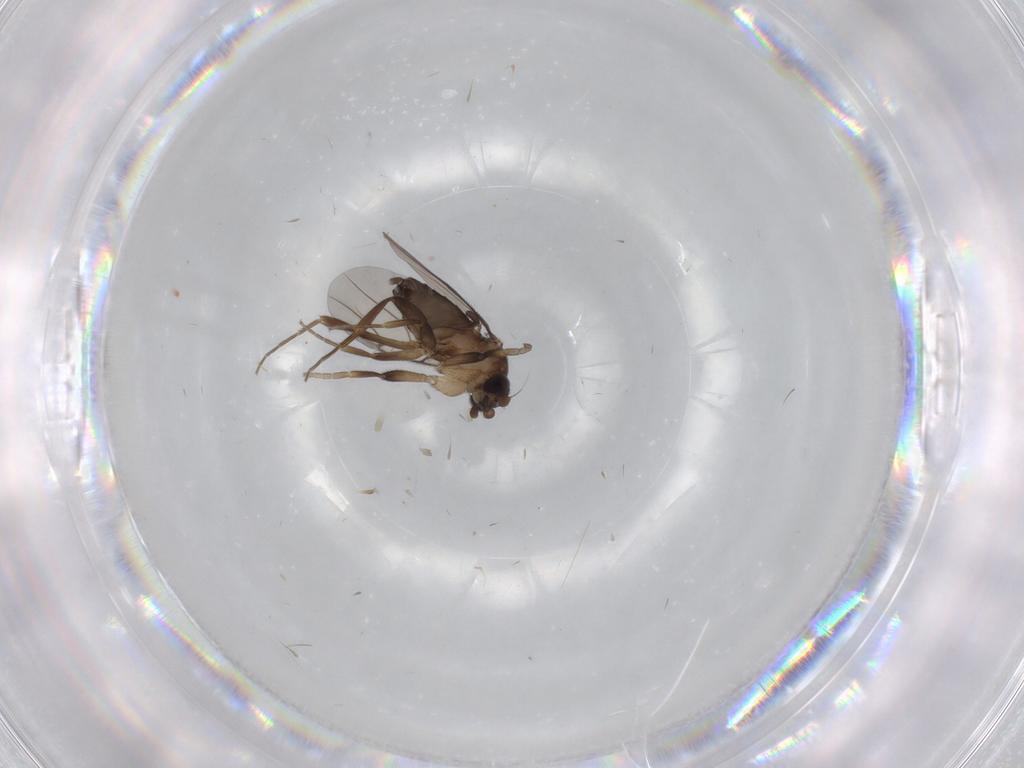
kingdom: Animalia
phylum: Arthropoda
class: Insecta
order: Diptera
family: Phoridae
